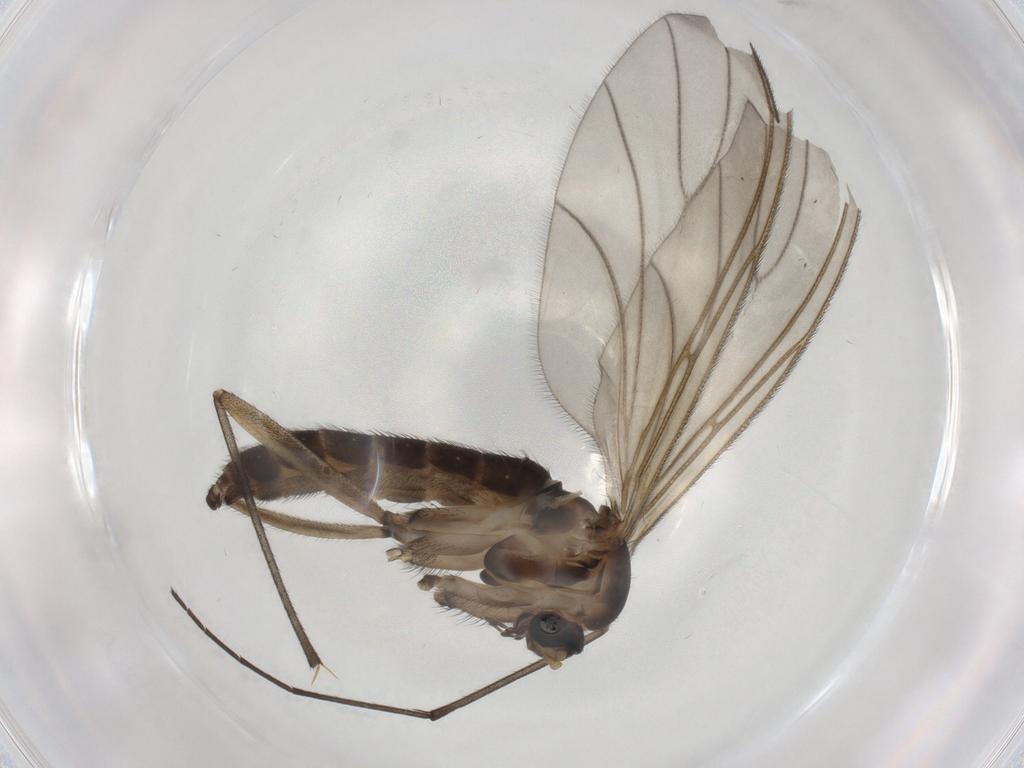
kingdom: Animalia
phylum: Arthropoda
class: Insecta
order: Diptera
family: Sciaridae
